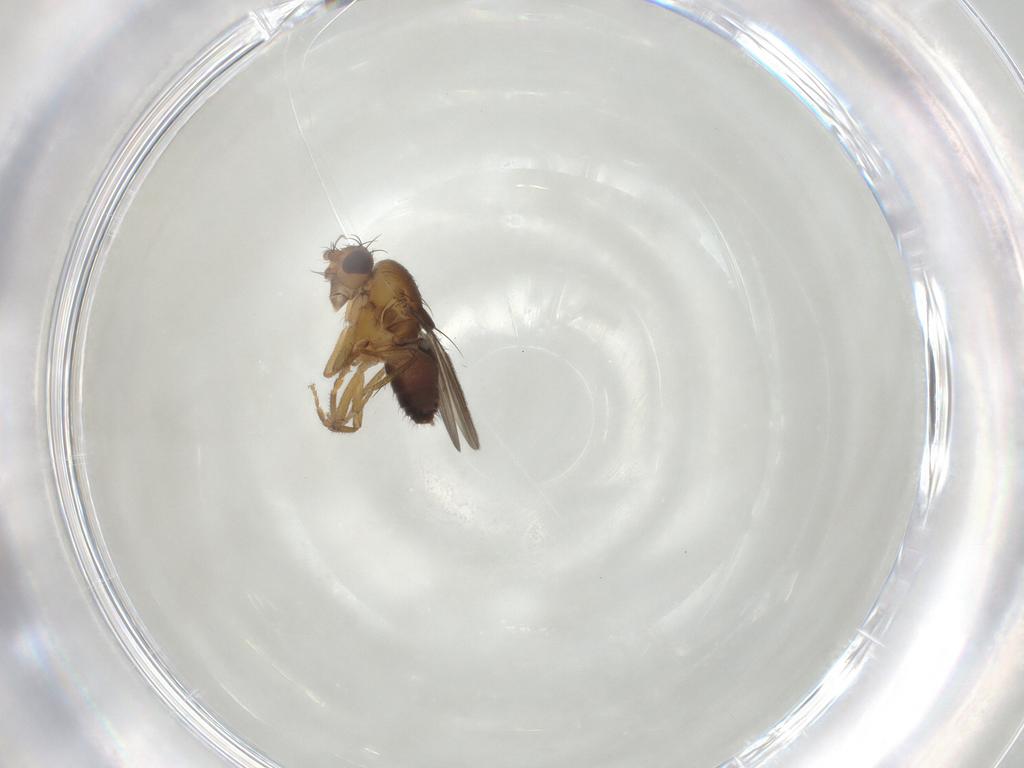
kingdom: Animalia
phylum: Arthropoda
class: Insecta
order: Diptera
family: Sphaeroceridae
